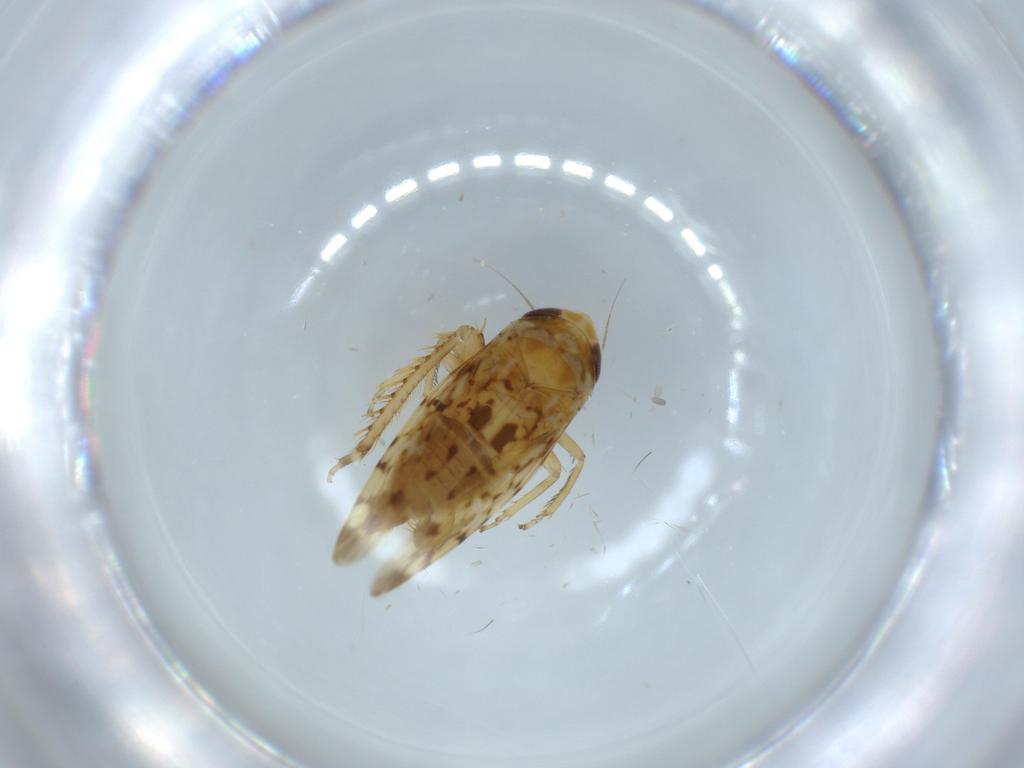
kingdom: Animalia
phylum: Arthropoda
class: Insecta
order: Hemiptera
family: Cicadellidae
